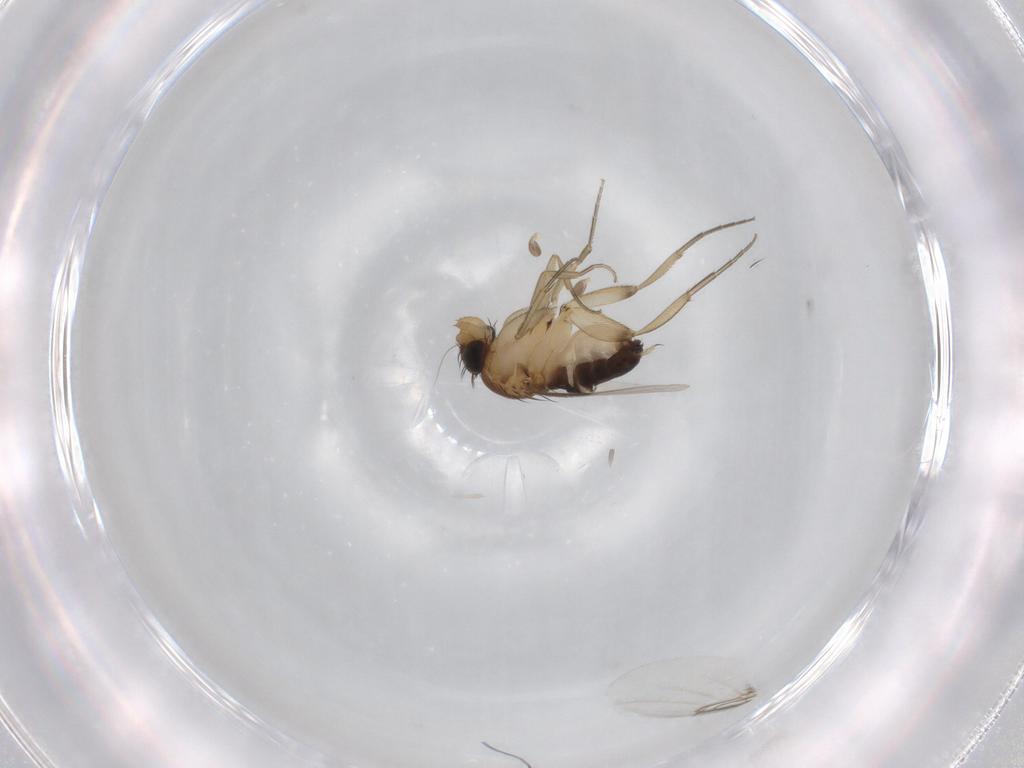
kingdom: Animalia
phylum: Arthropoda
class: Insecta
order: Diptera
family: Sciaridae
